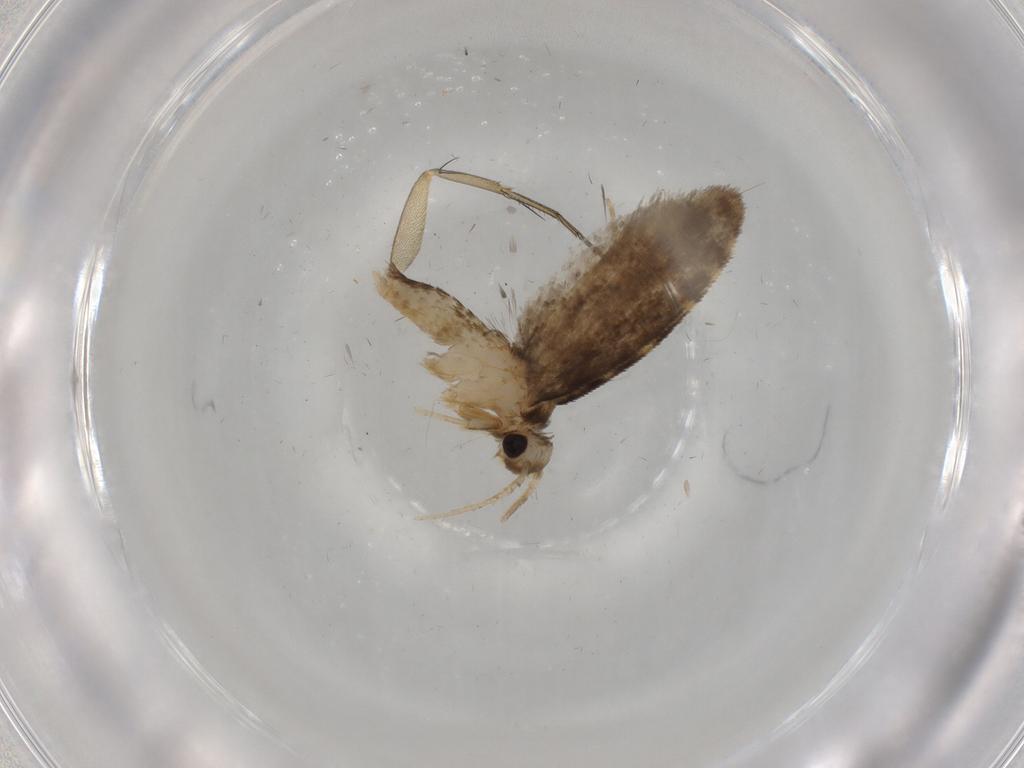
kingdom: Animalia
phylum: Arthropoda
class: Insecta
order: Lepidoptera
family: Psychidae
